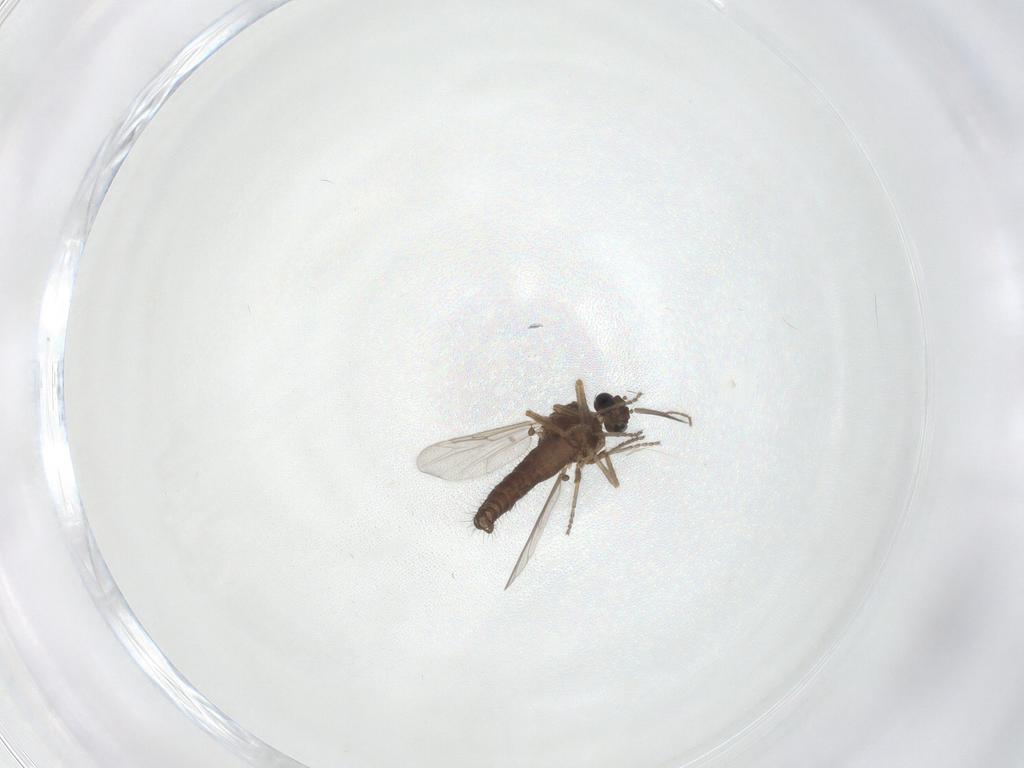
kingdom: Animalia
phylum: Arthropoda
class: Insecta
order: Diptera
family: Ceratopogonidae
